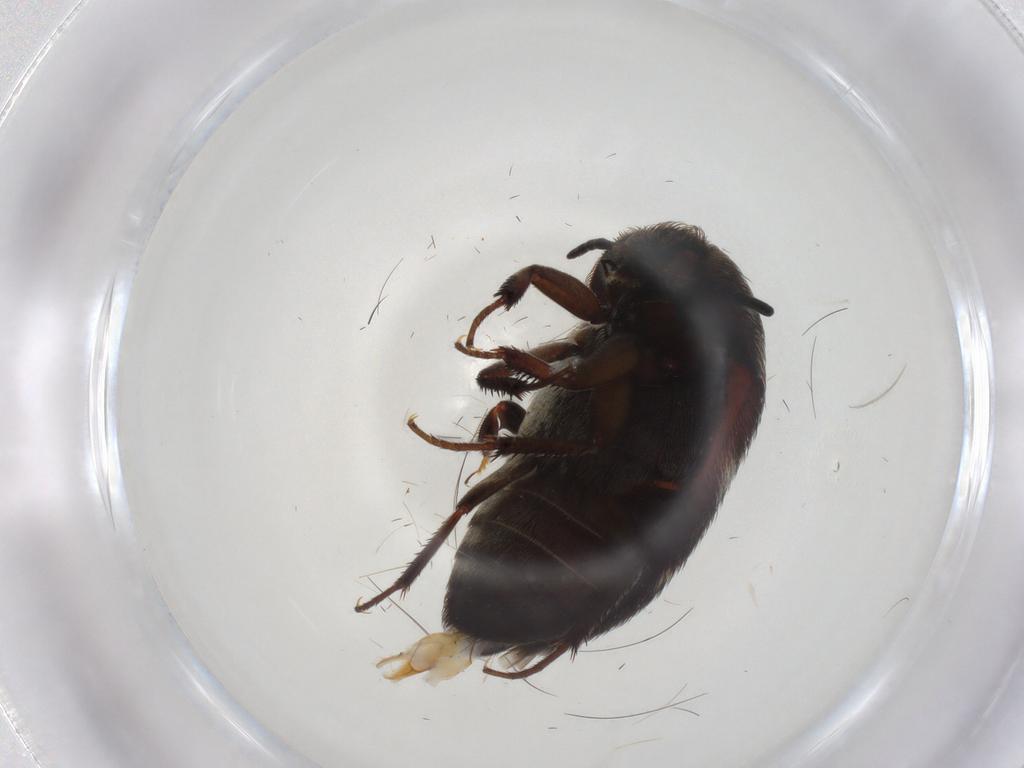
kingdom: Animalia
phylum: Arthropoda
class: Insecta
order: Coleoptera
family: Dermestidae
